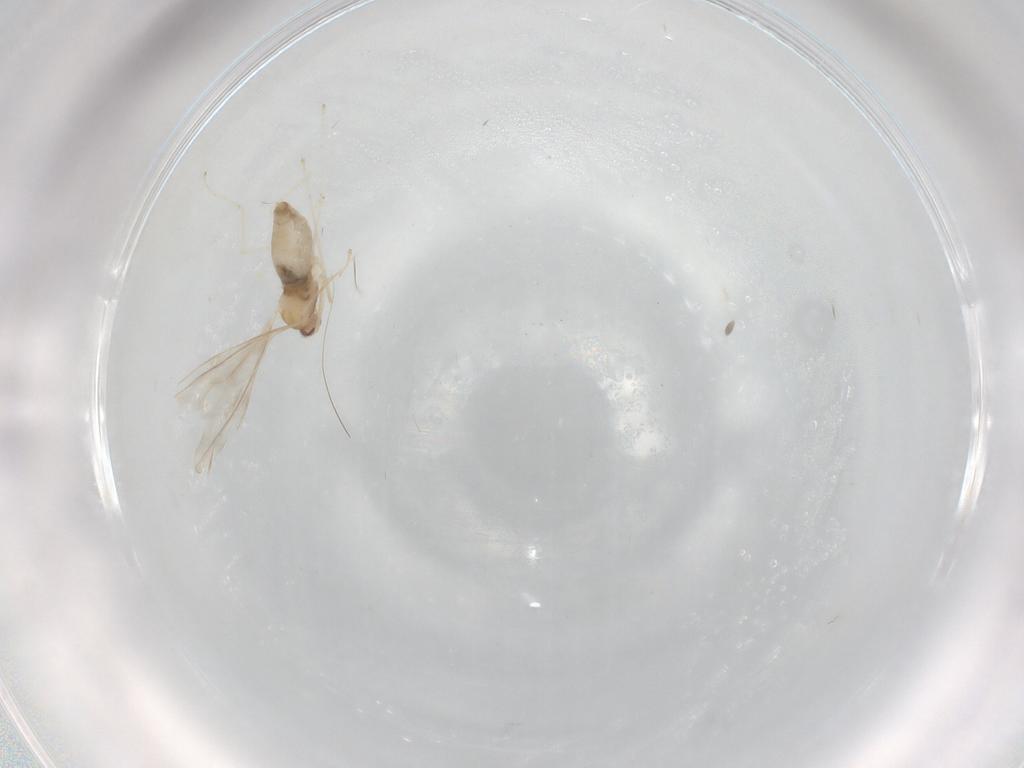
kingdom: Animalia
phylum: Arthropoda
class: Insecta
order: Diptera
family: Cecidomyiidae
